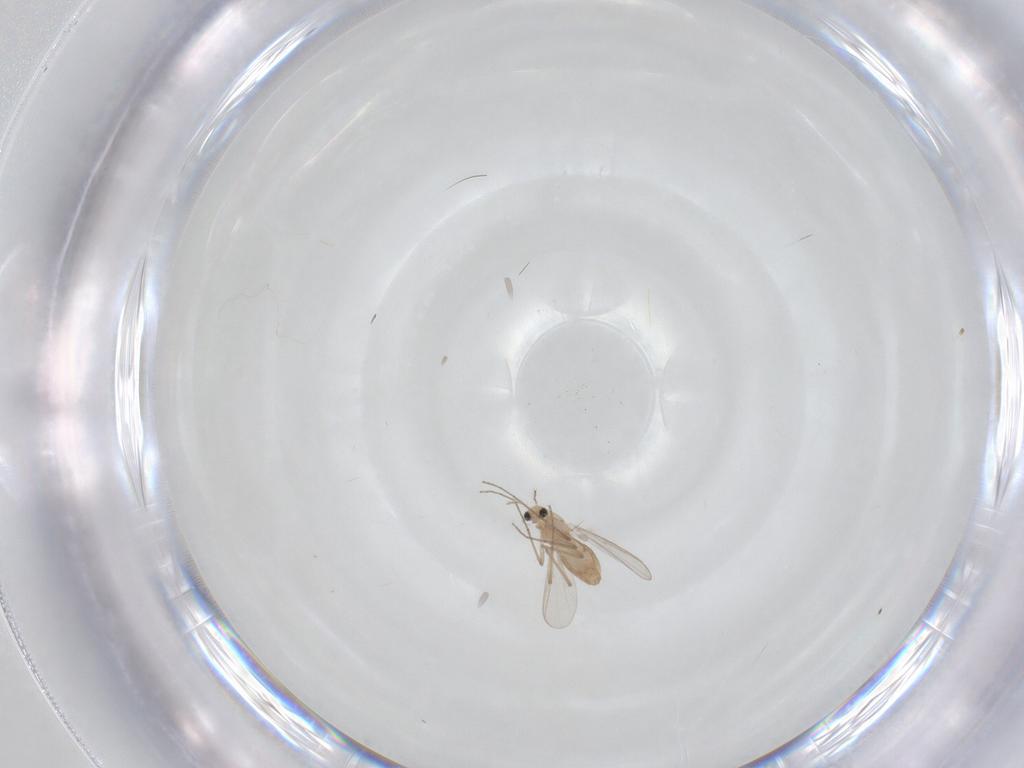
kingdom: Animalia
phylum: Arthropoda
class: Insecta
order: Diptera
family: Chironomidae
